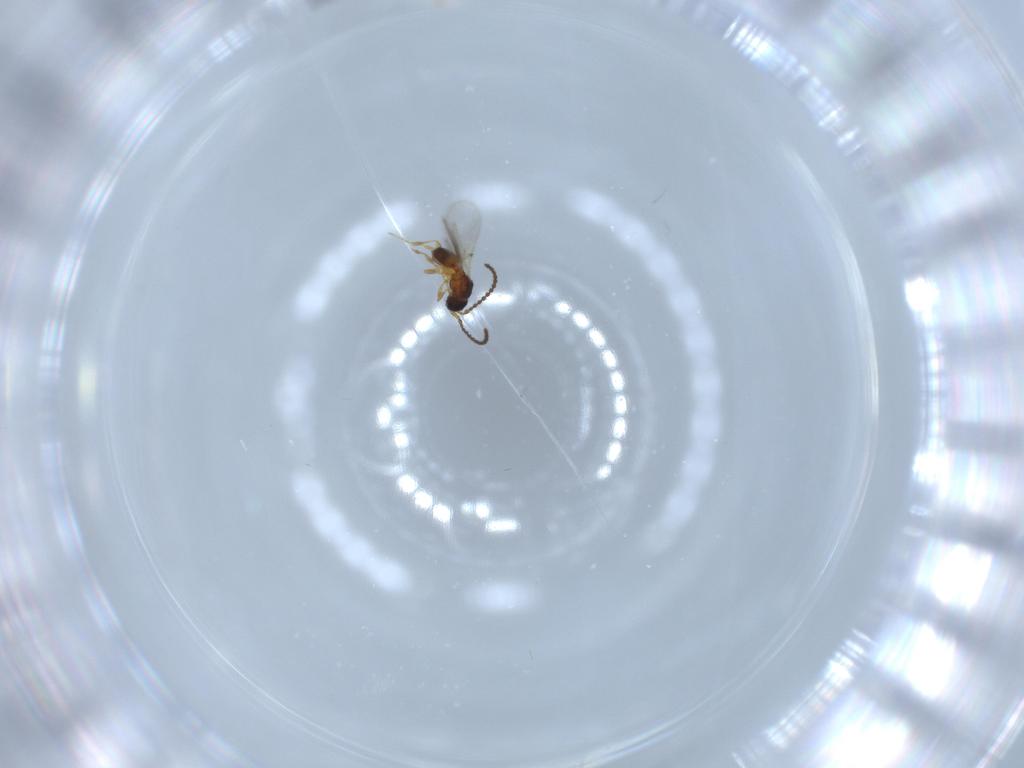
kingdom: Animalia
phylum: Arthropoda
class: Insecta
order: Hymenoptera
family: Diapriidae
